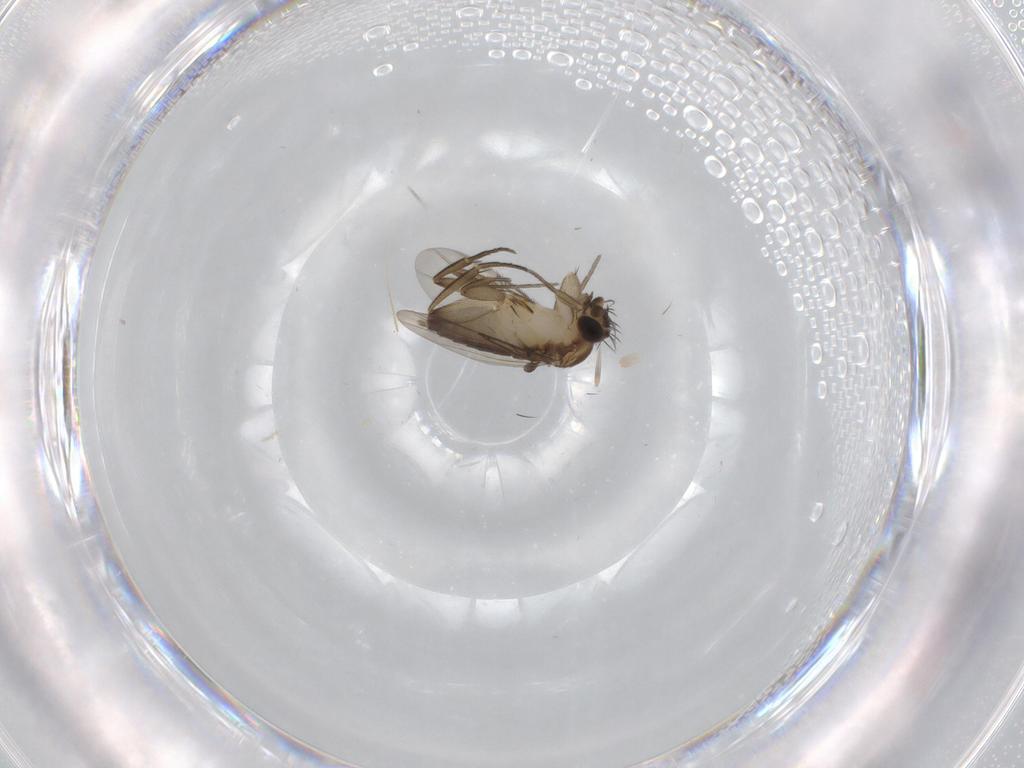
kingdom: Animalia
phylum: Arthropoda
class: Insecta
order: Diptera
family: Phoridae
